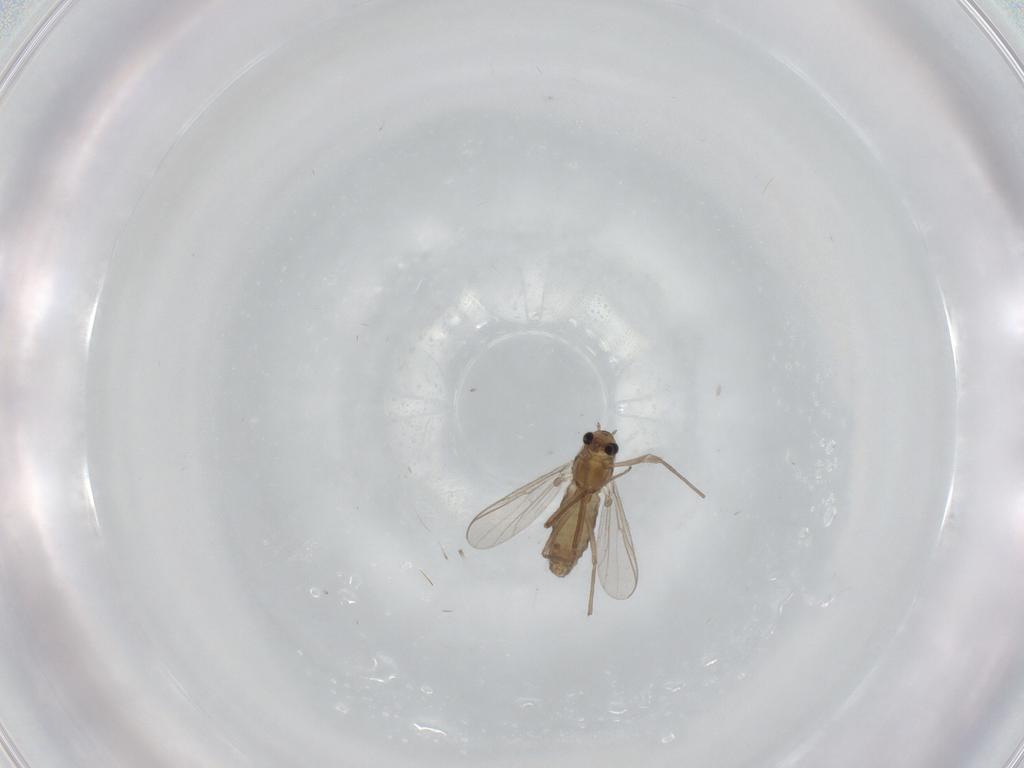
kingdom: Animalia
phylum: Arthropoda
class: Insecta
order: Diptera
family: Chironomidae
